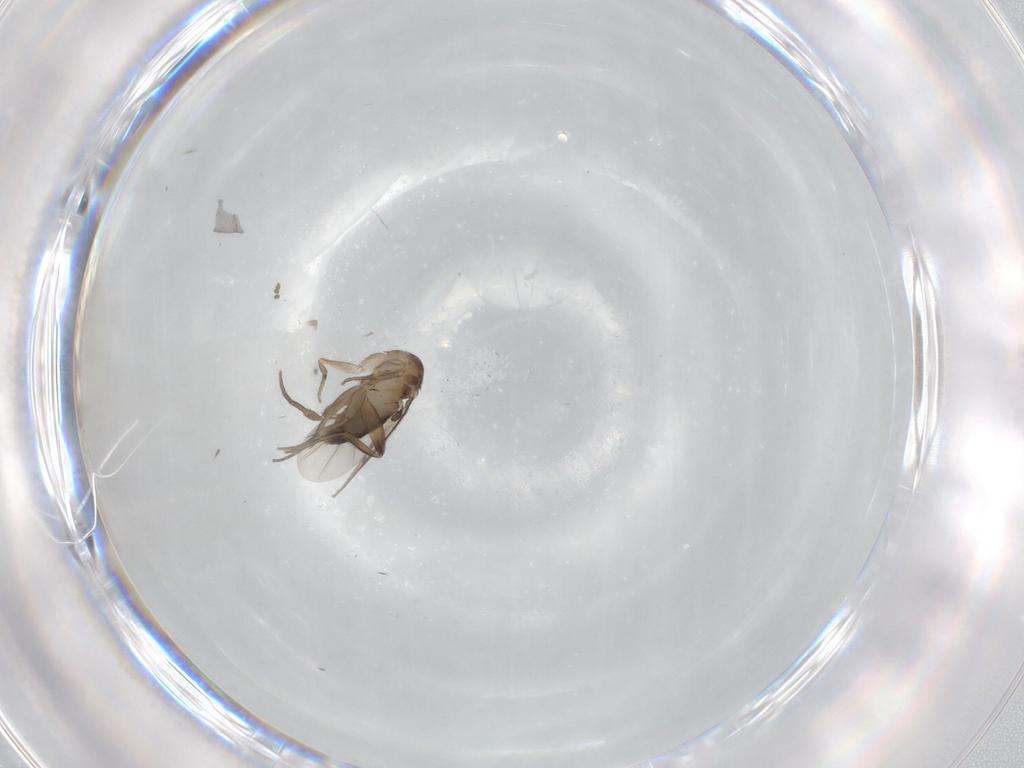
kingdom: Animalia
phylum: Arthropoda
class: Insecta
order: Diptera
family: Phoridae
